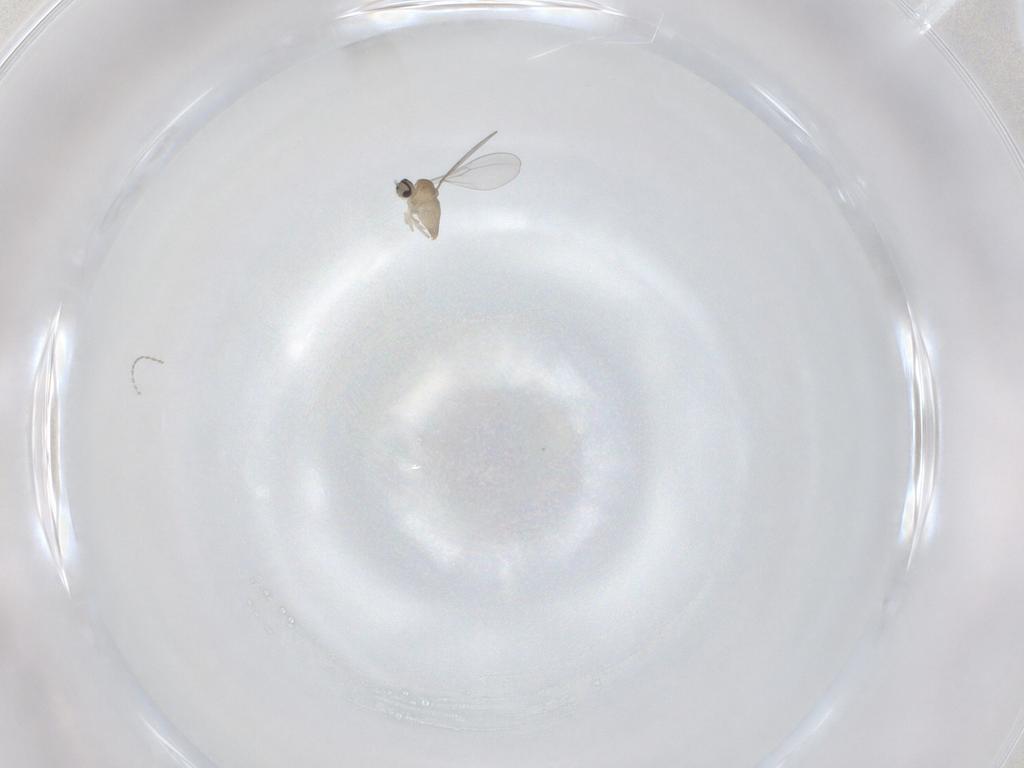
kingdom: Animalia
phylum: Arthropoda
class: Insecta
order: Diptera
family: Psychodidae
